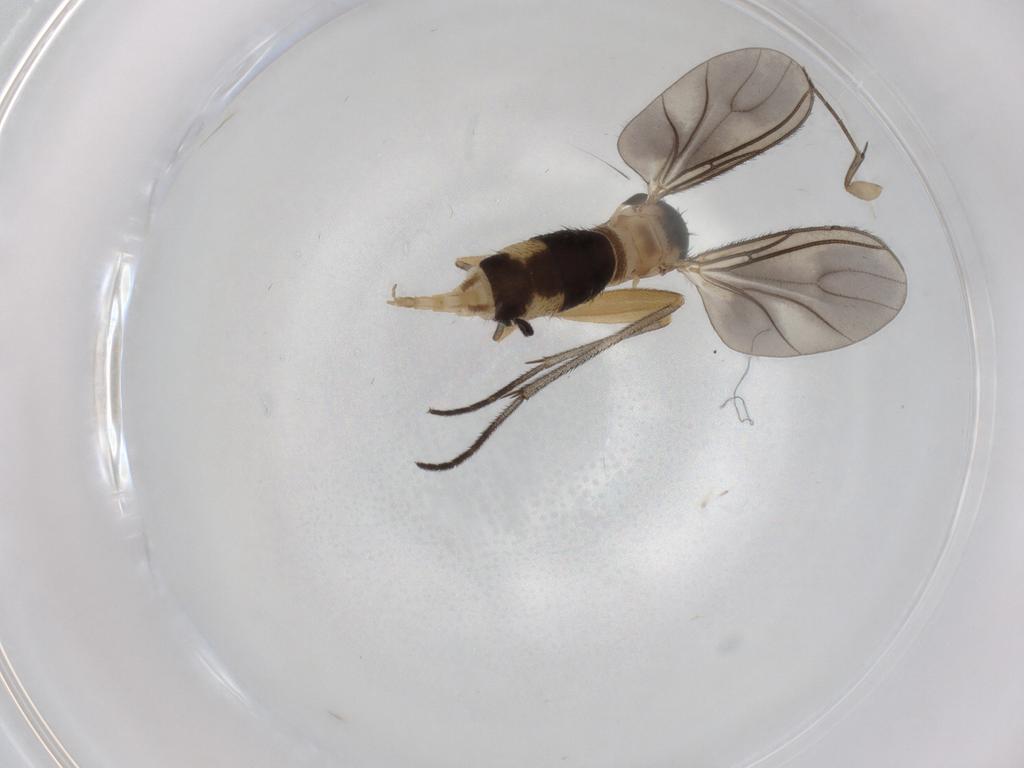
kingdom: Animalia
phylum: Arthropoda
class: Insecta
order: Diptera
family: Sciaridae
